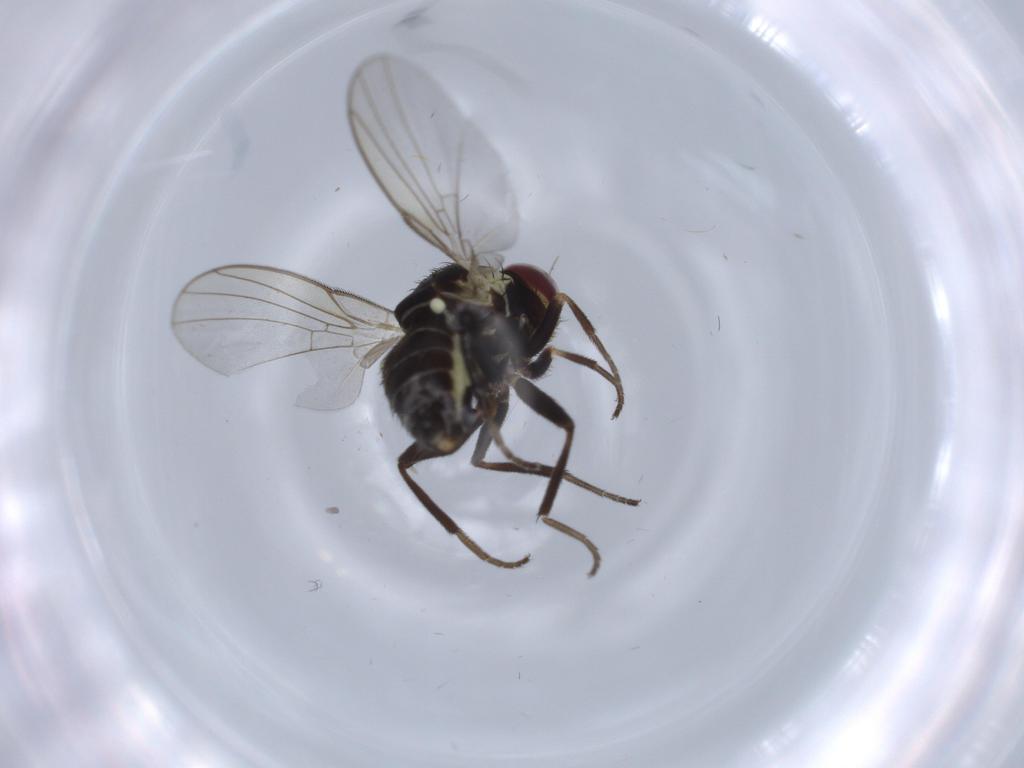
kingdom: Animalia
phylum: Arthropoda
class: Insecta
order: Diptera
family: Agromyzidae
